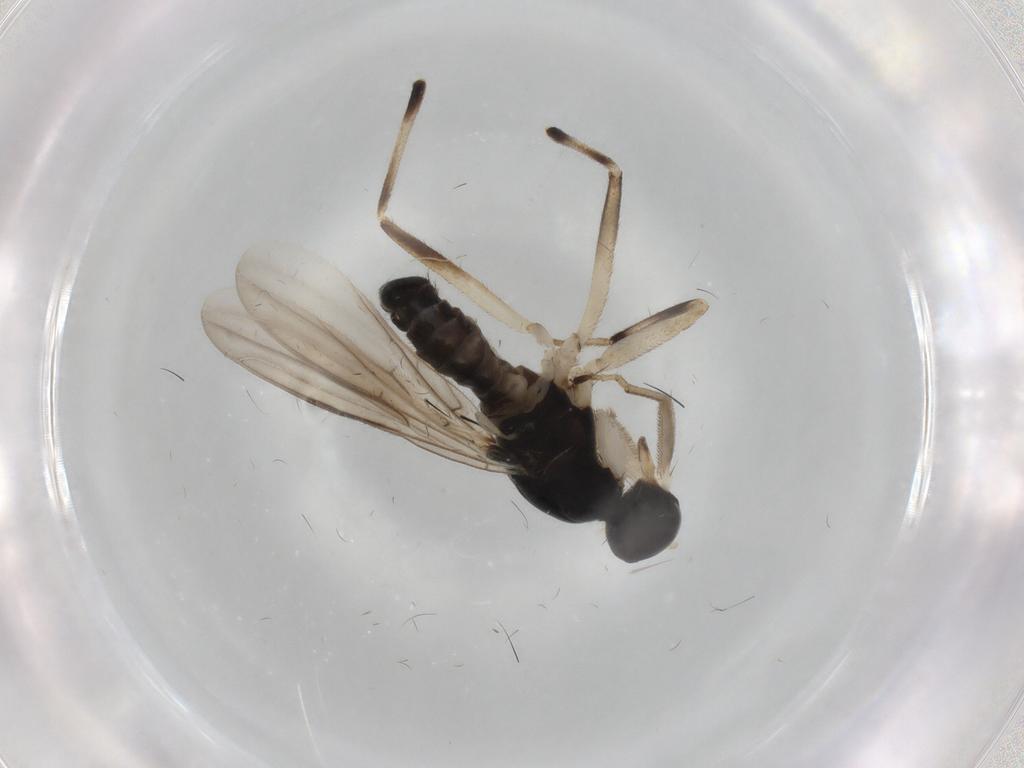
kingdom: Animalia
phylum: Arthropoda
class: Insecta
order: Diptera
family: Hybotidae
